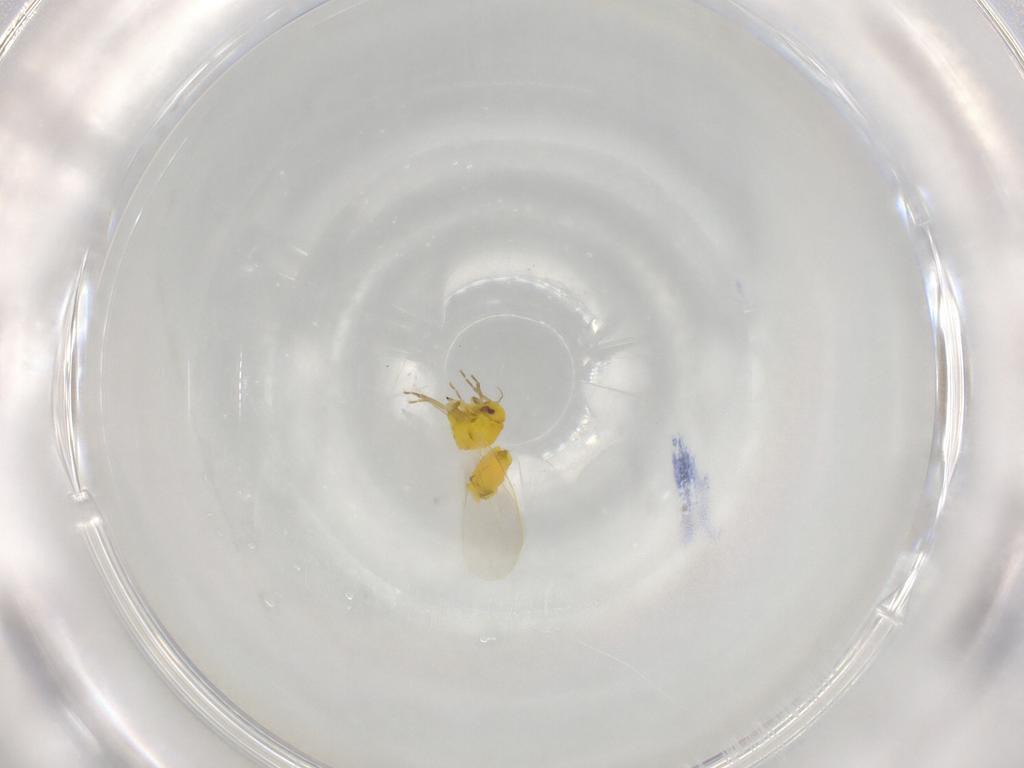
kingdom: Animalia
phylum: Arthropoda
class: Insecta
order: Hemiptera
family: Aleyrodidae
